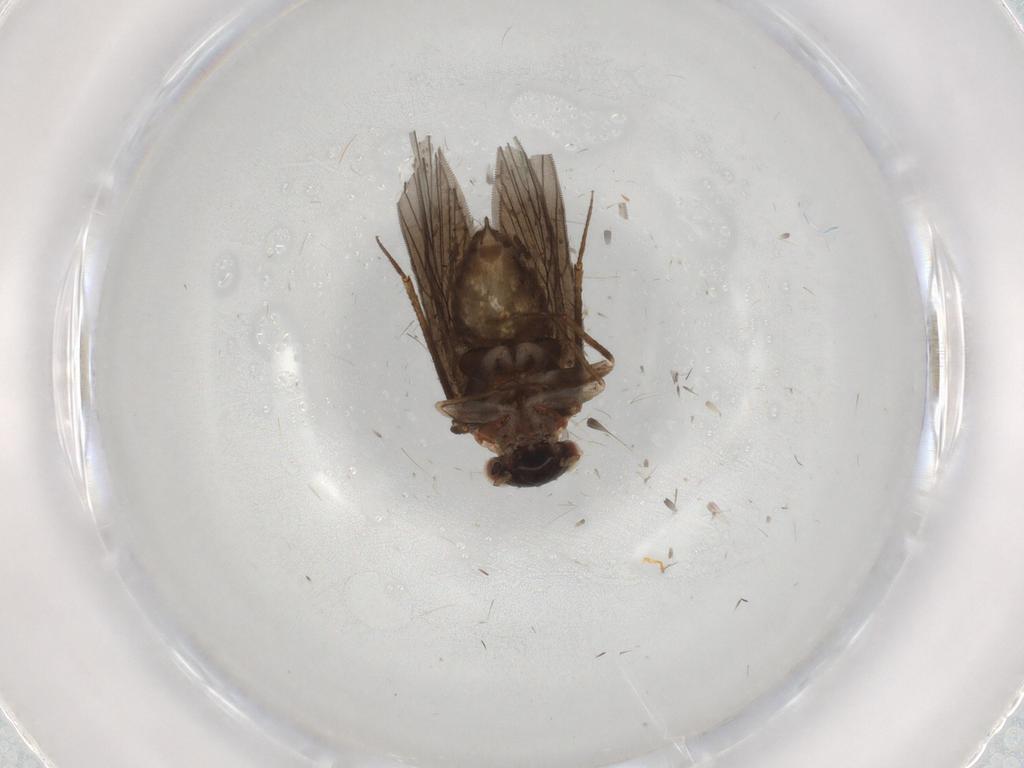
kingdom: Animalia
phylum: Arthropoda
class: Insecta
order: Psocodea
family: Lepidopsocidae
